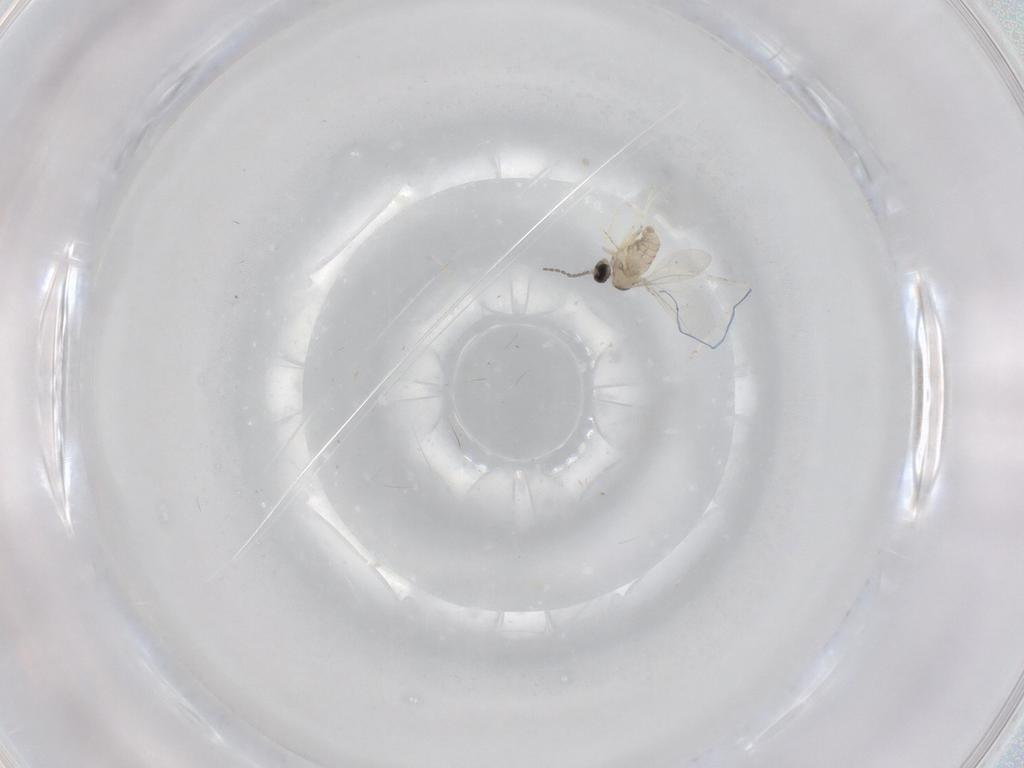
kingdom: Animalia
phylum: Arthropoda
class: Insecta
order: Diptera
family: Cecidomyiidae
